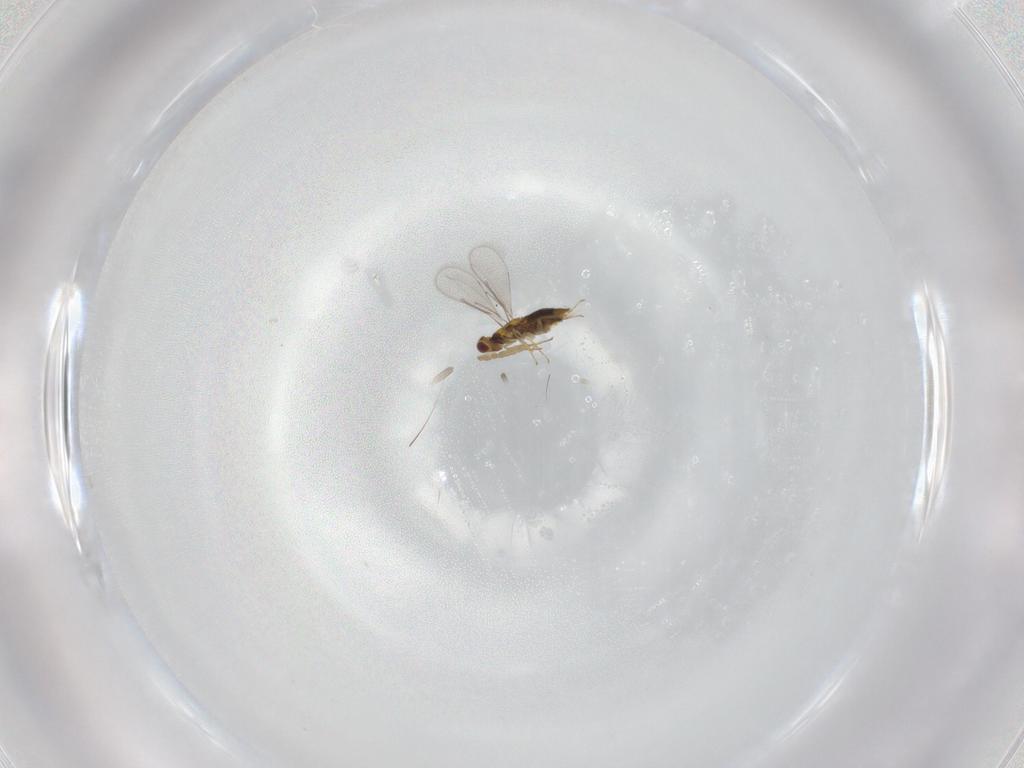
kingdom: Animalia
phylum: Arthropoda
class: Insecta
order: Hymenoptera
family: Aphelinidae
